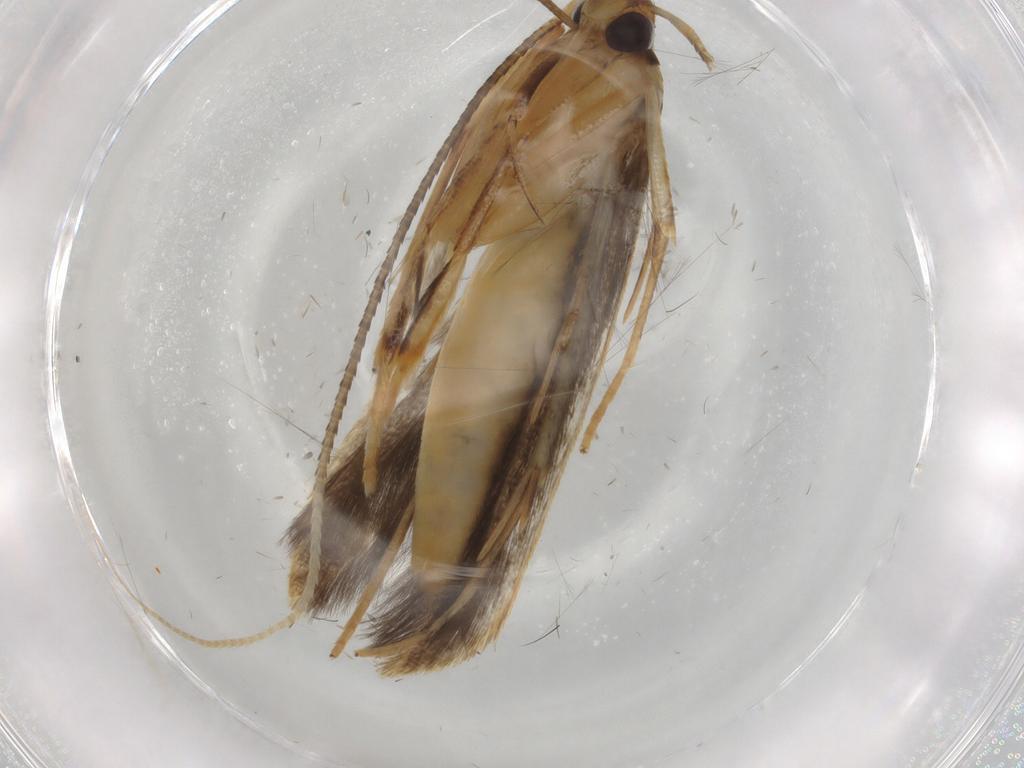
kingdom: Animalia
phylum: Arthropoda
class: Insecta
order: Lepidoptera
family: Pterolonchidae
